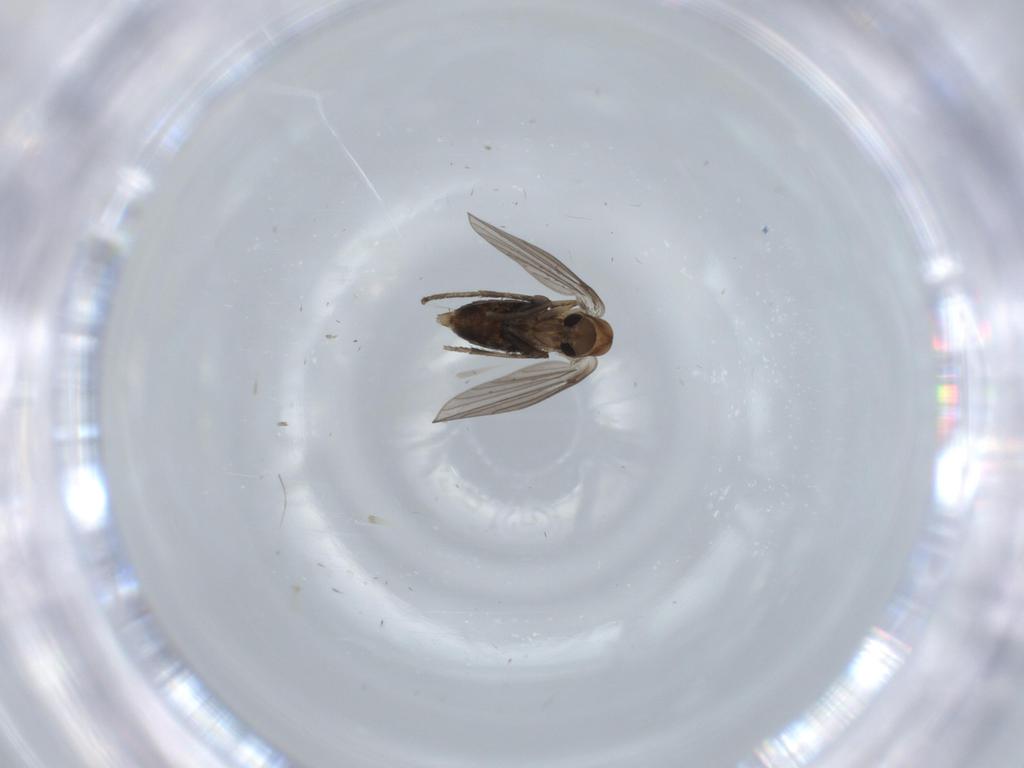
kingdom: Animalia
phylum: Arthropoda
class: Insecta
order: Diptera
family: Psychodidae
